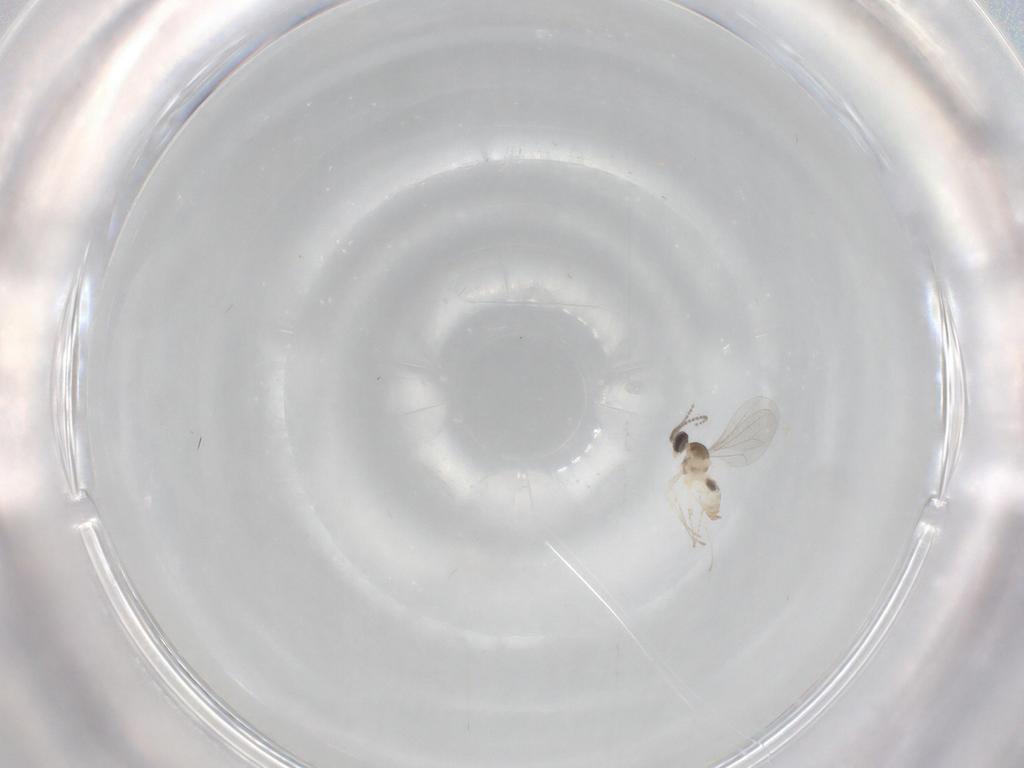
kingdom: Animalia
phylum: Arthropoda
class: Insecta
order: Diptera
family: Cecidomyiidae
